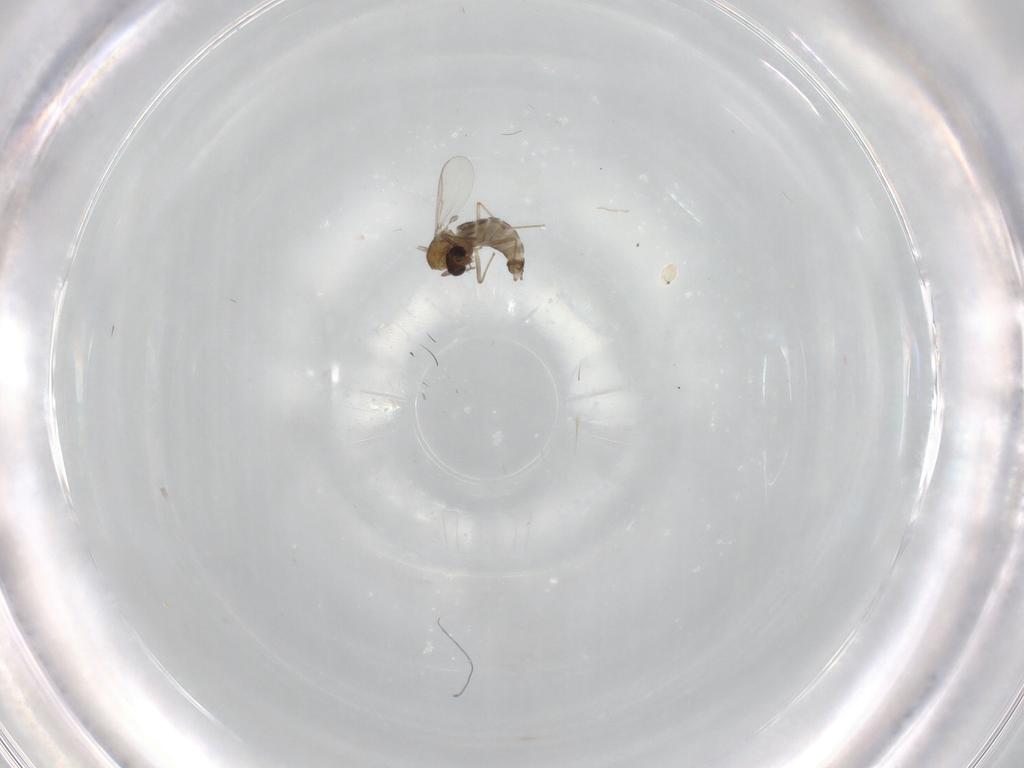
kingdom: Animalia
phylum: Arthropoda
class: Insecta
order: Diptera
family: Chironomidae
